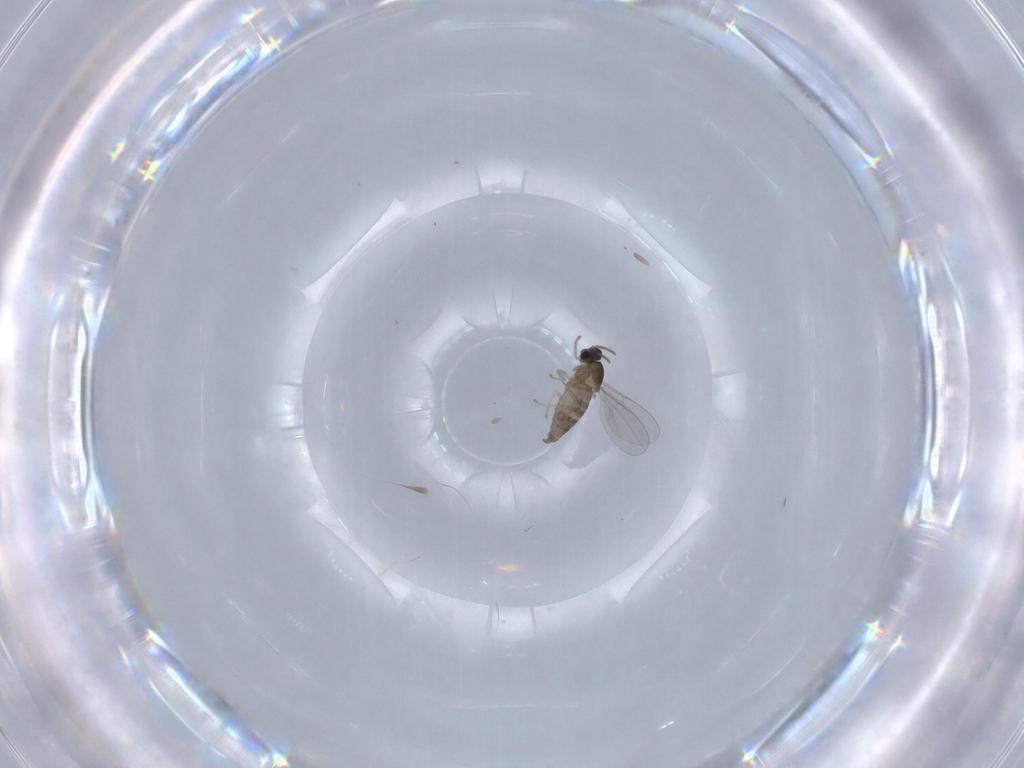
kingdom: Animalia
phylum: Arthropoda
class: Insecta
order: Diptera
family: Cecidomyiidae
